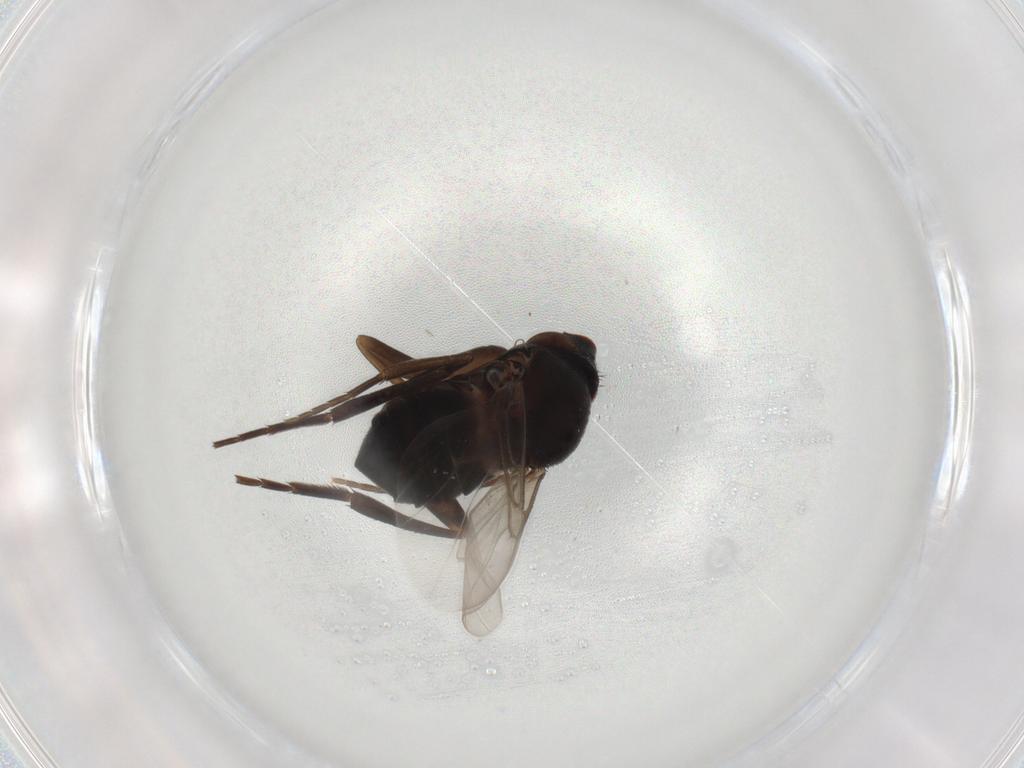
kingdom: Animalia
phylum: Arthropoda
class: Insecta
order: Diptera
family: Phoridae
